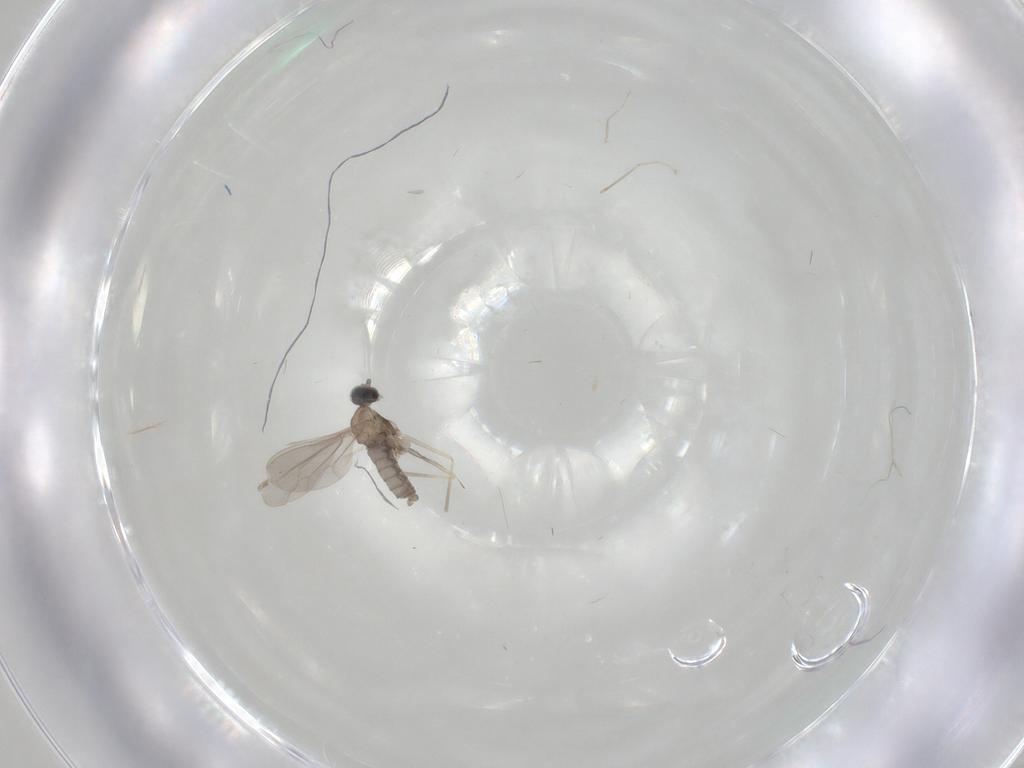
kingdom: Animalia
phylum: Arthropoda
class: Insecta
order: Diptera
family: Cecidomyiidae
